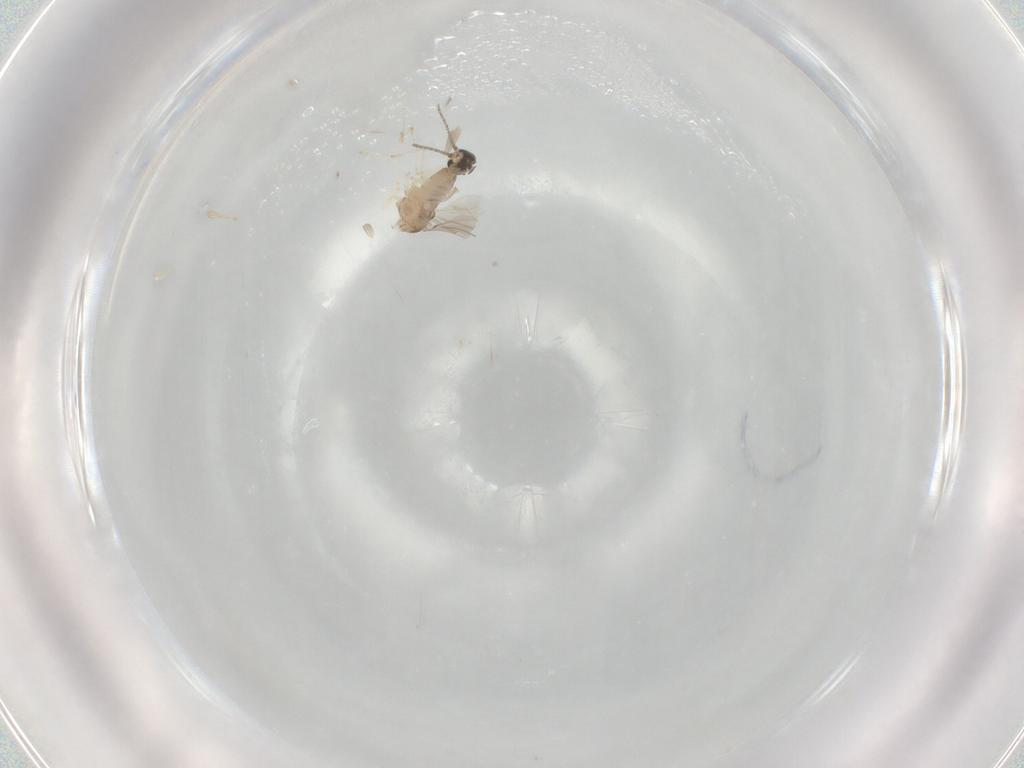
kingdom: Animalia
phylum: Arthropoda
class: Insecta
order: Diptera
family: Cecidomyiidae
